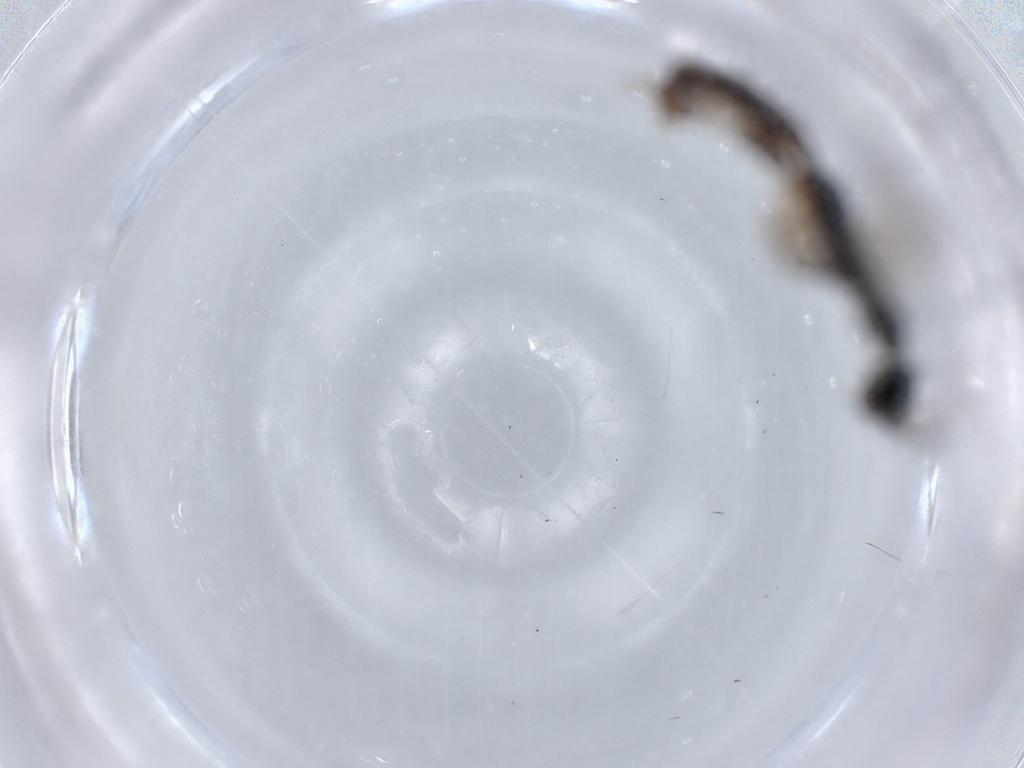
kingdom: Animalia
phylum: Arthropoda
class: Insecta
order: Hymenoptera
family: Bethylidae
